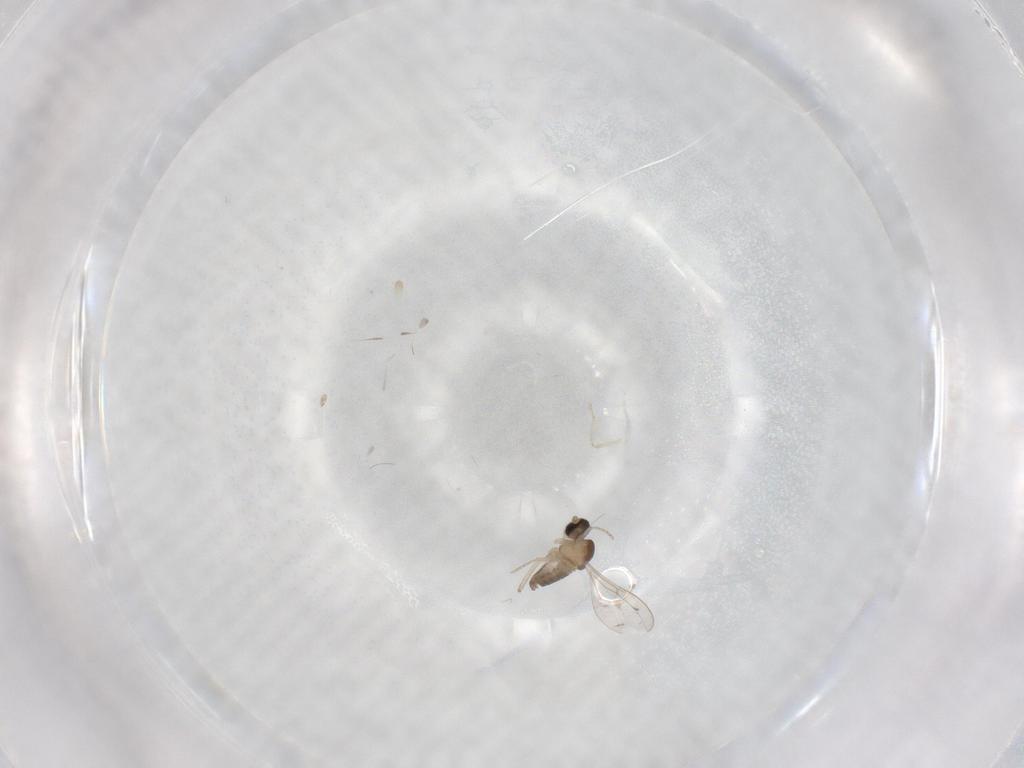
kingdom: Animalia
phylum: Arthropoda
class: Insecta
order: Diptera
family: Cecidomyiidae
